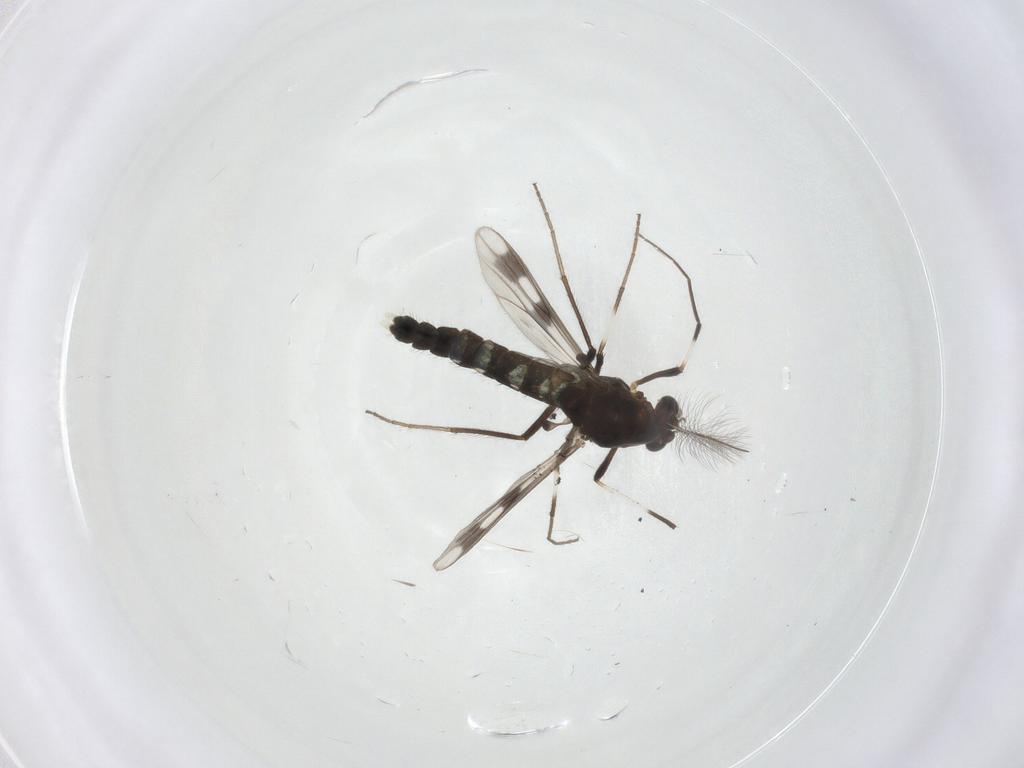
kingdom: Animalia
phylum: Arthropoda
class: Insecta
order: Diptera
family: Chironomidae
